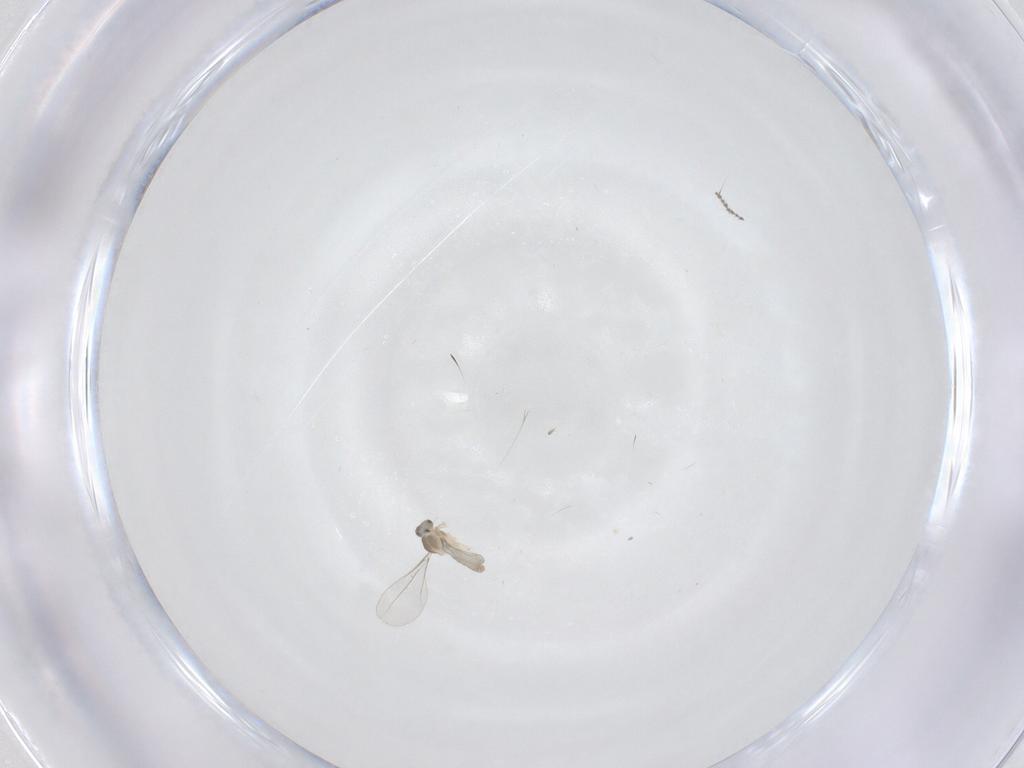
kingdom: Animalia
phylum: Arthropoda
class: Insecta
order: Diptera
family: Cecidomyiidae
